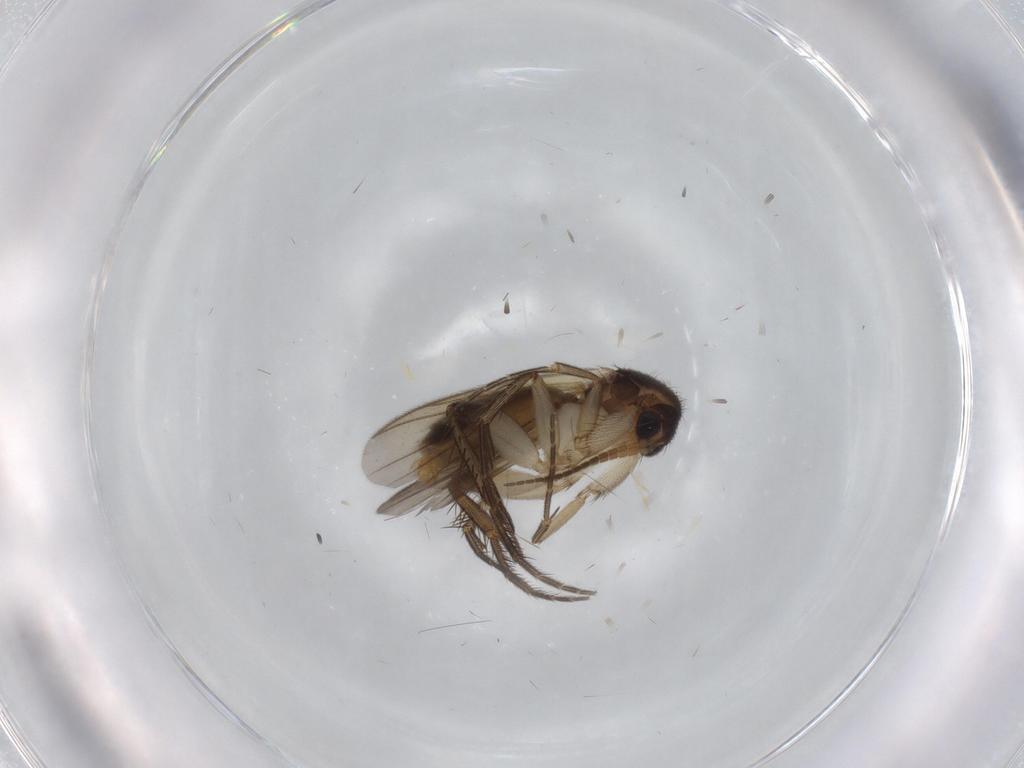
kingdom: Animalia
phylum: Arthropoda
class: Insecta
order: Diptera
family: Mycetophilidae
